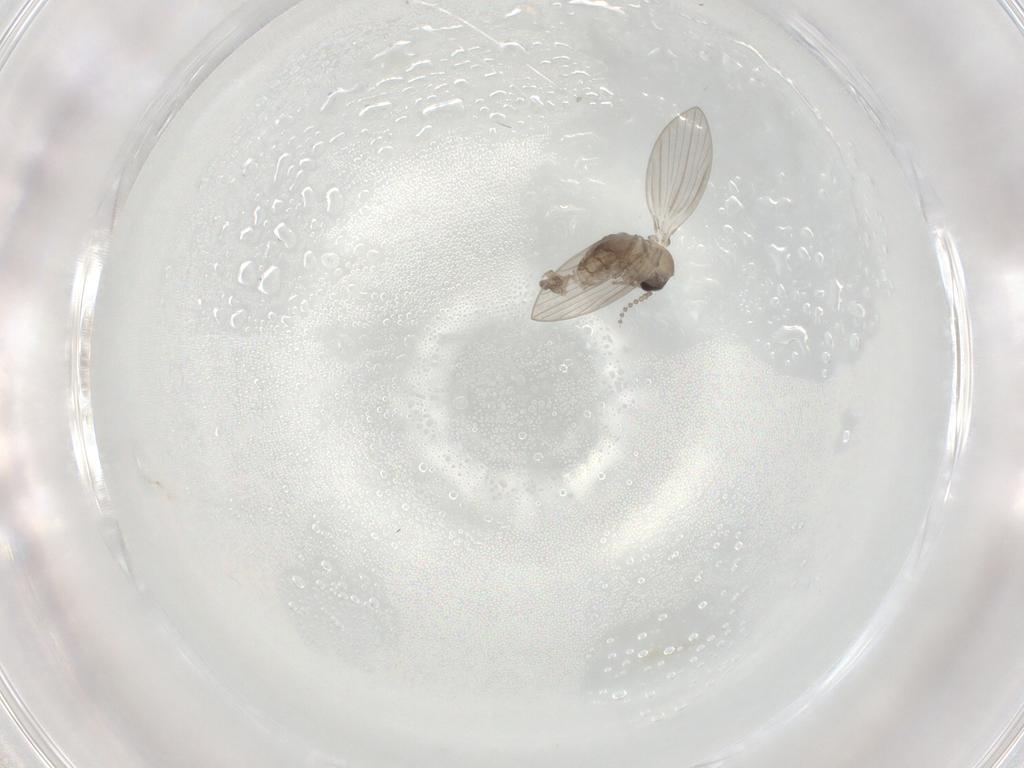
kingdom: Animalia
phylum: Arthropoda
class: Insecta
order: Diptera
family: Psychodidae
